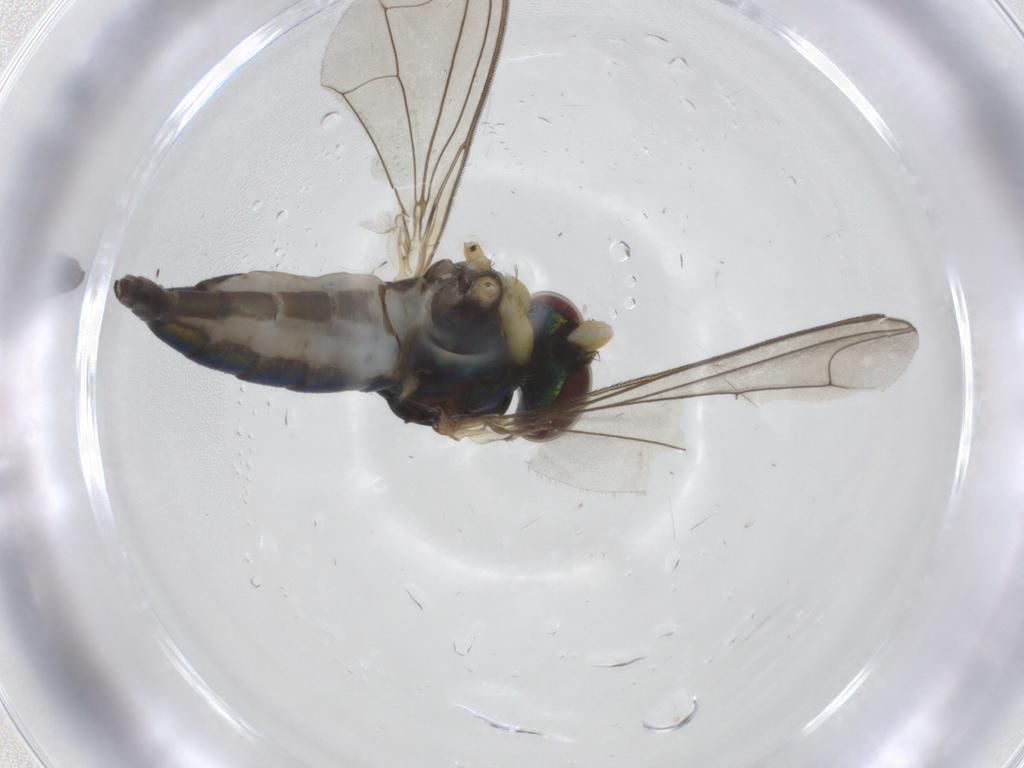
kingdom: Animalia
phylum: Arthropoda
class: Insecta
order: Diptera
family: Dolichopodidae
